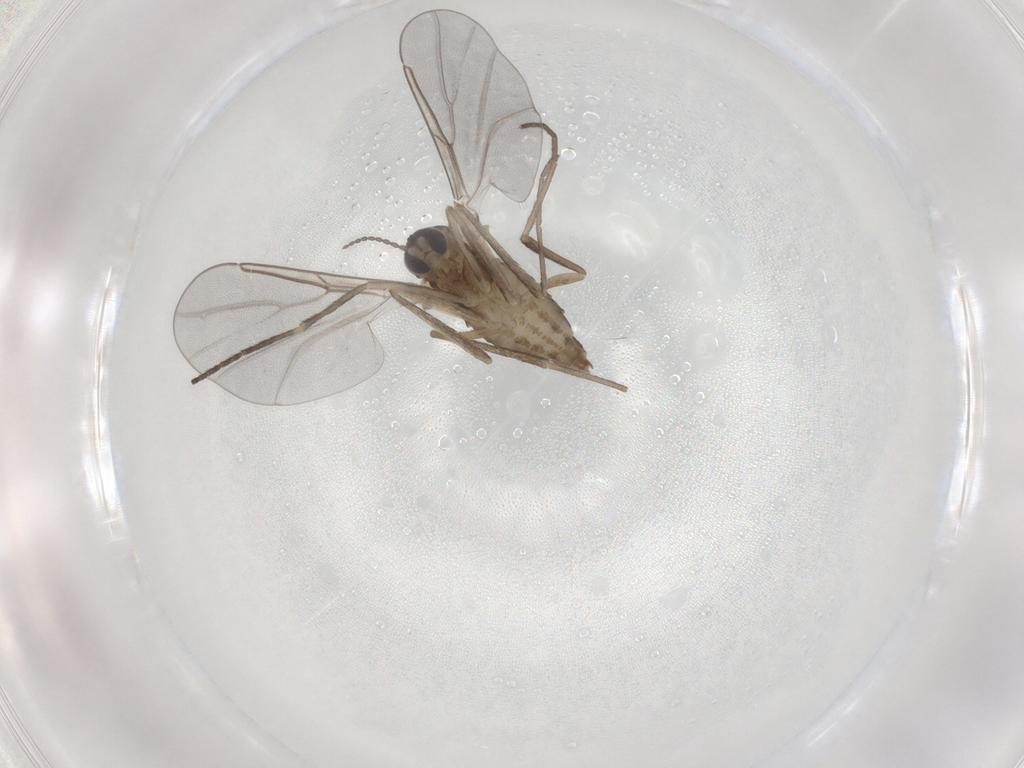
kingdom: Animalia
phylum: Arthropoda
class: Insecta
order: Diptera
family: Cecidomyiidae
